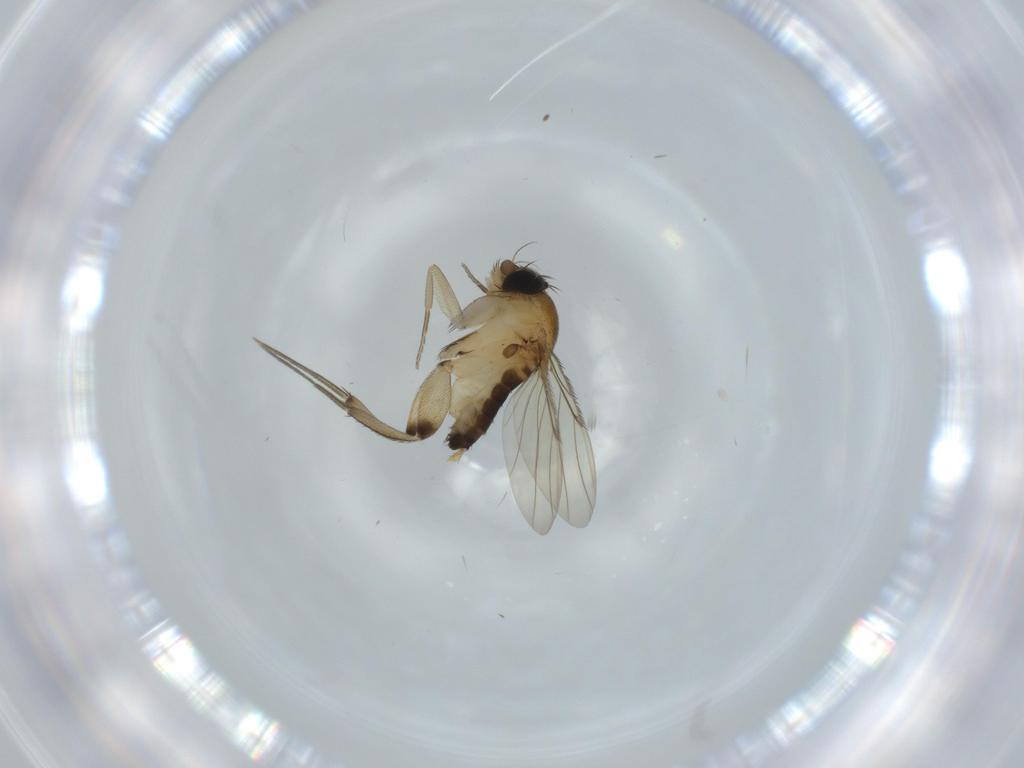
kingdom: Animalia
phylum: Arthropoda
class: Insecta
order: Diptera
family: Phoridae
